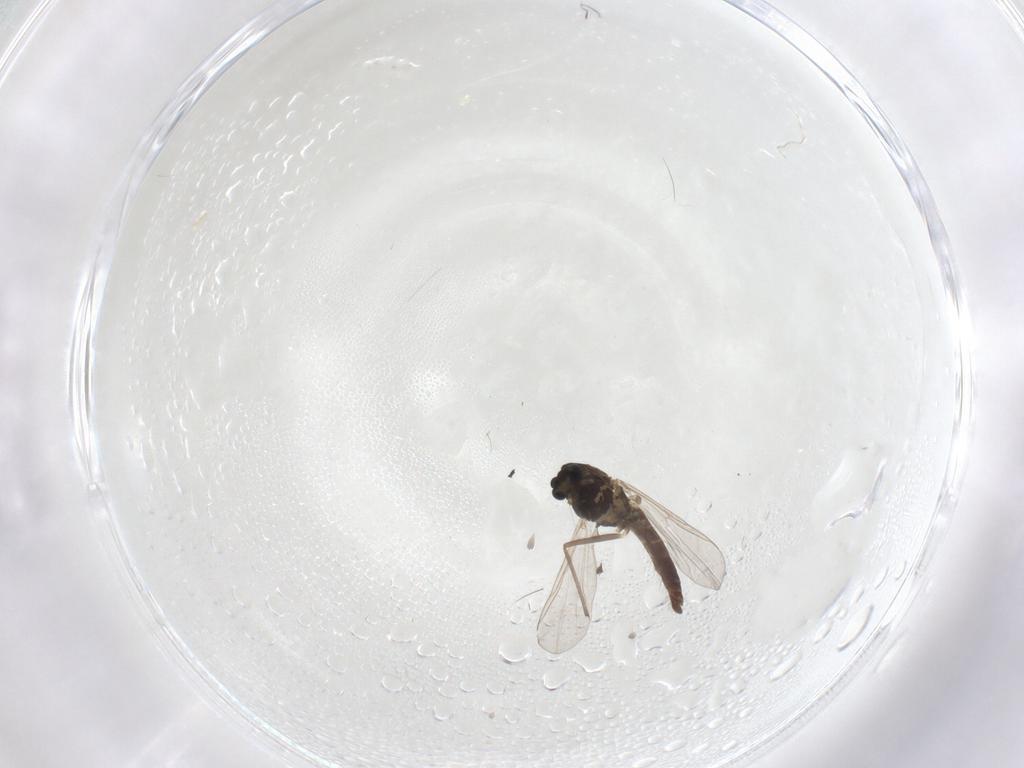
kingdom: Animalia
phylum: Arthropoda
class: Insecta
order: Diptera
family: Chironomidae
